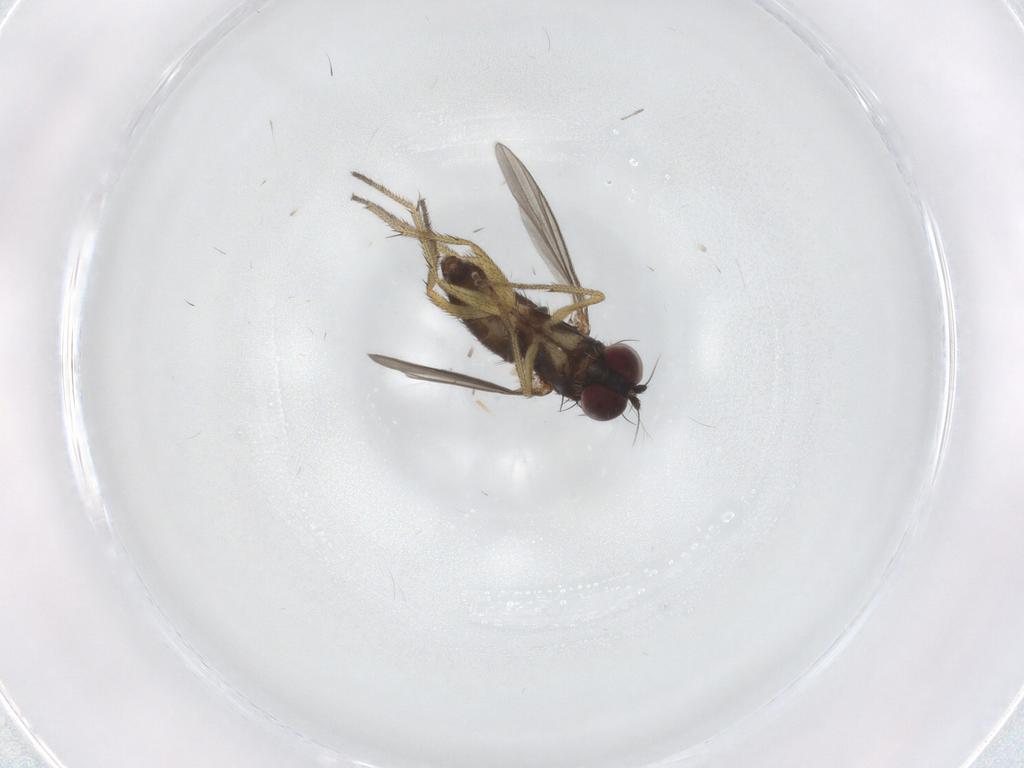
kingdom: Animalia
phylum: Arthropoda
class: Insecta
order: Diptera
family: Dolichopodidae
